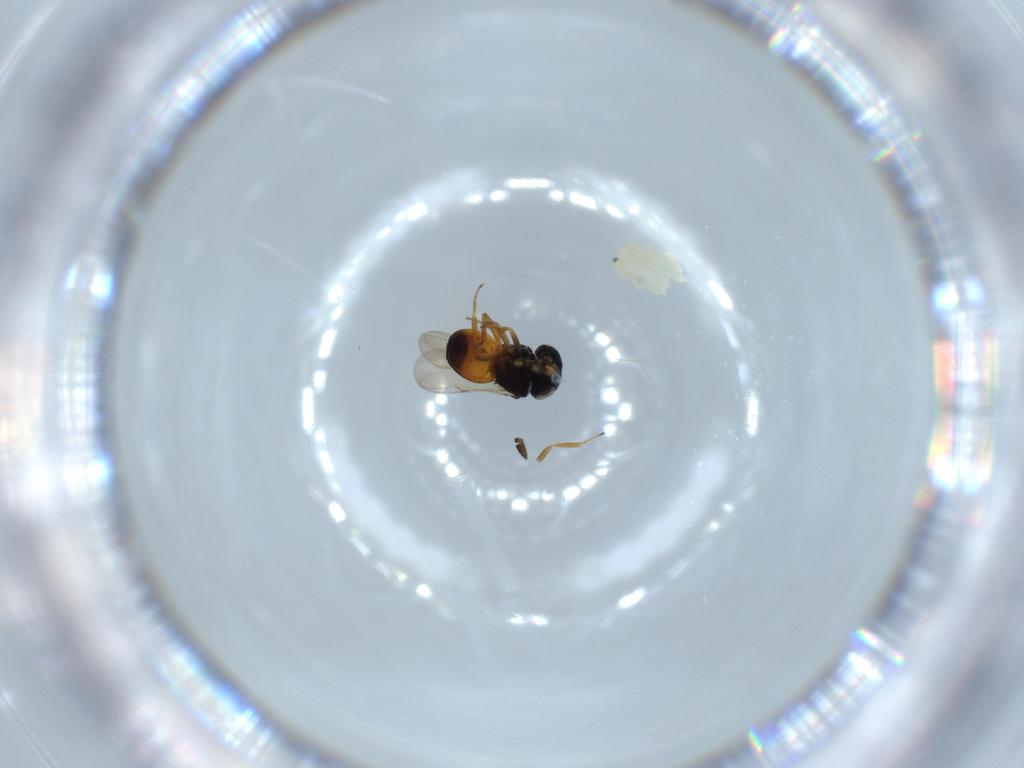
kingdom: Animalia
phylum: Arthropoda
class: Insecta
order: Hymenoptera
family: Scelionidae
